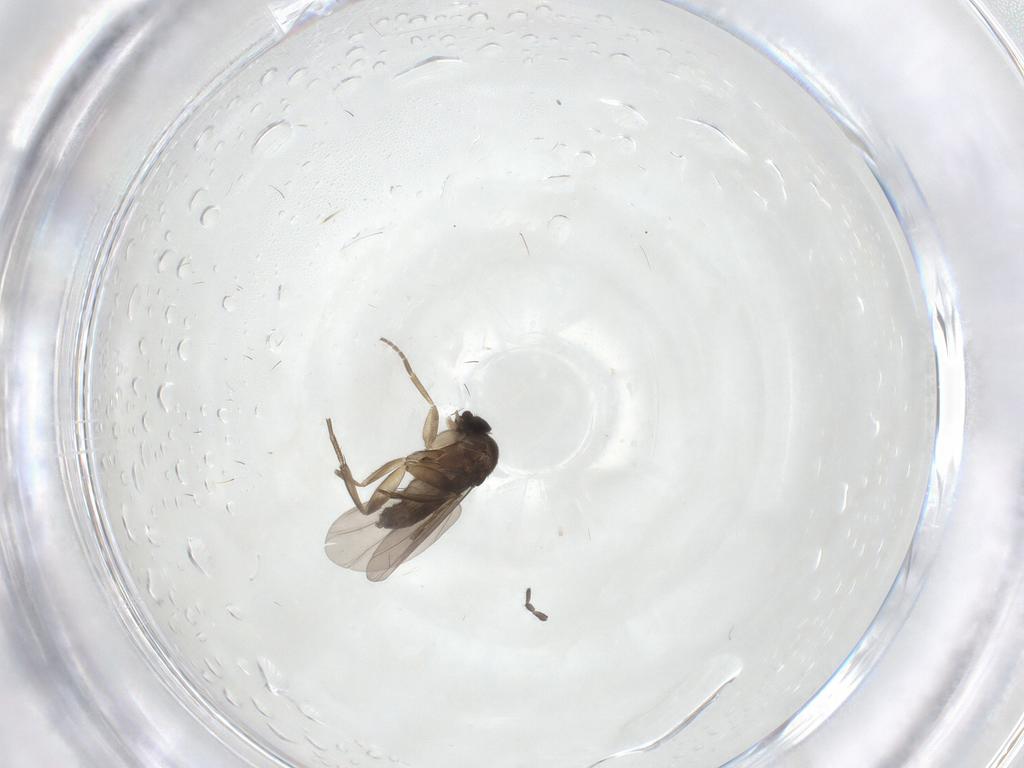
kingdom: Animalia
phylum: Arthropoda
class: Insecta
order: Diptera
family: Phoridae
